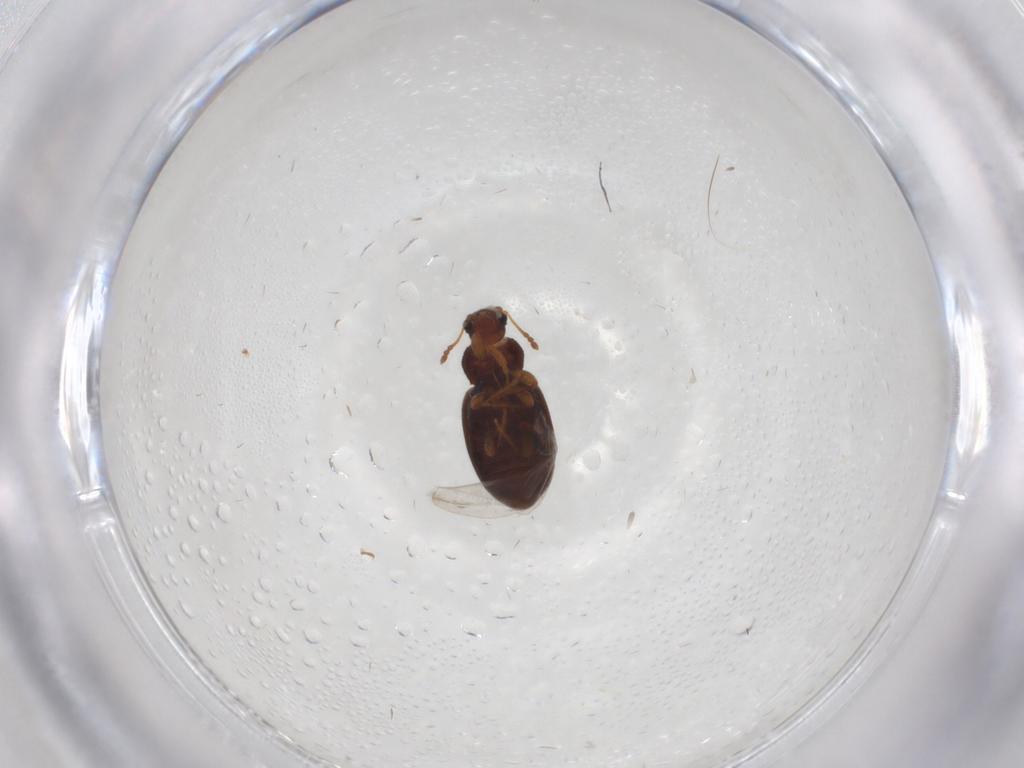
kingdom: Animalia
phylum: Arthropoda
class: Insecta
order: Coleoptera
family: Latridiidae
